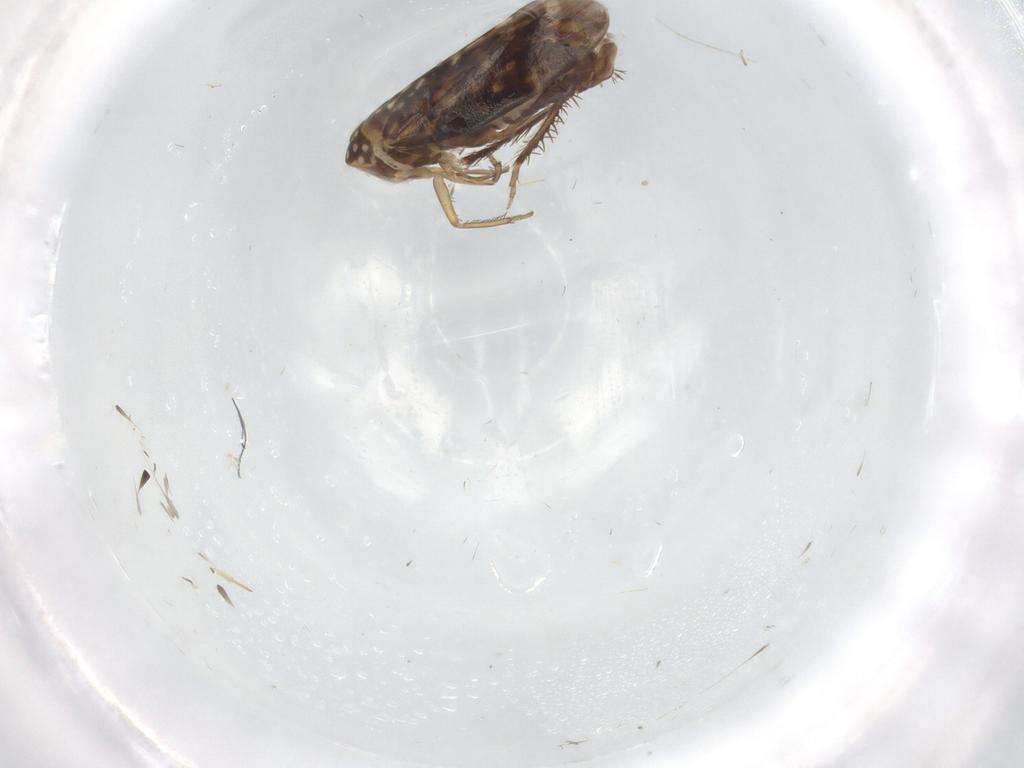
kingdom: Animalia
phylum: Arthropoda
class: Insecta
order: Hemiptera
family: Cicadellidae
